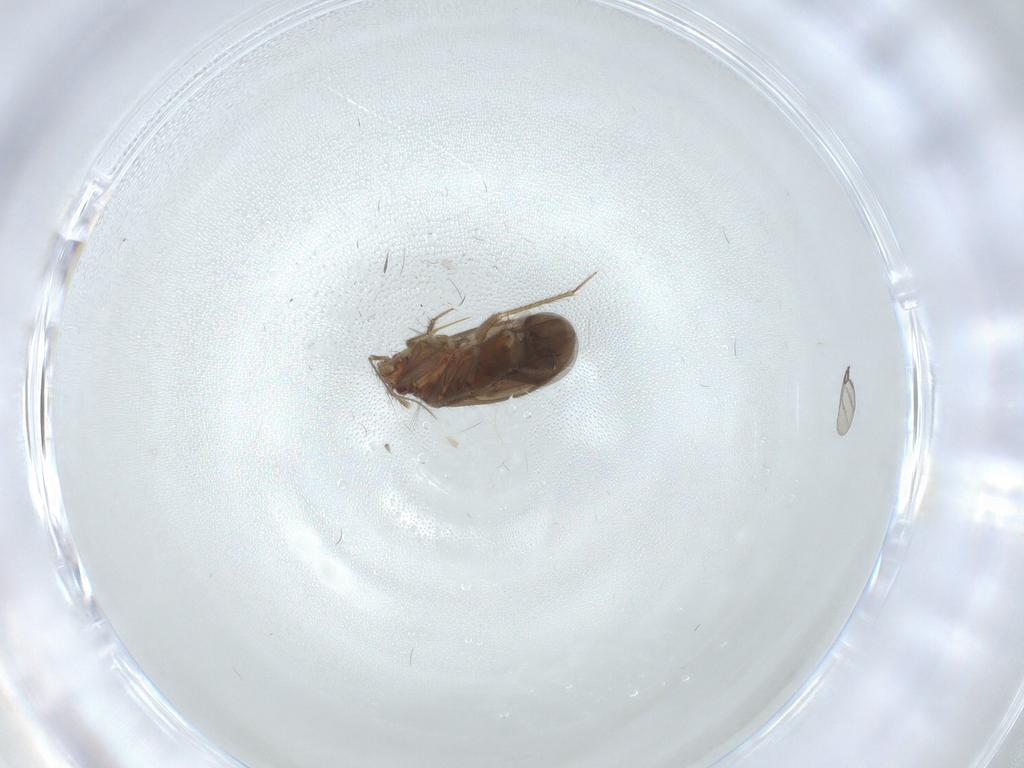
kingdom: Animalia
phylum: Arthropoda
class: Insecta
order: Hemiptera
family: Ceratocombidae
